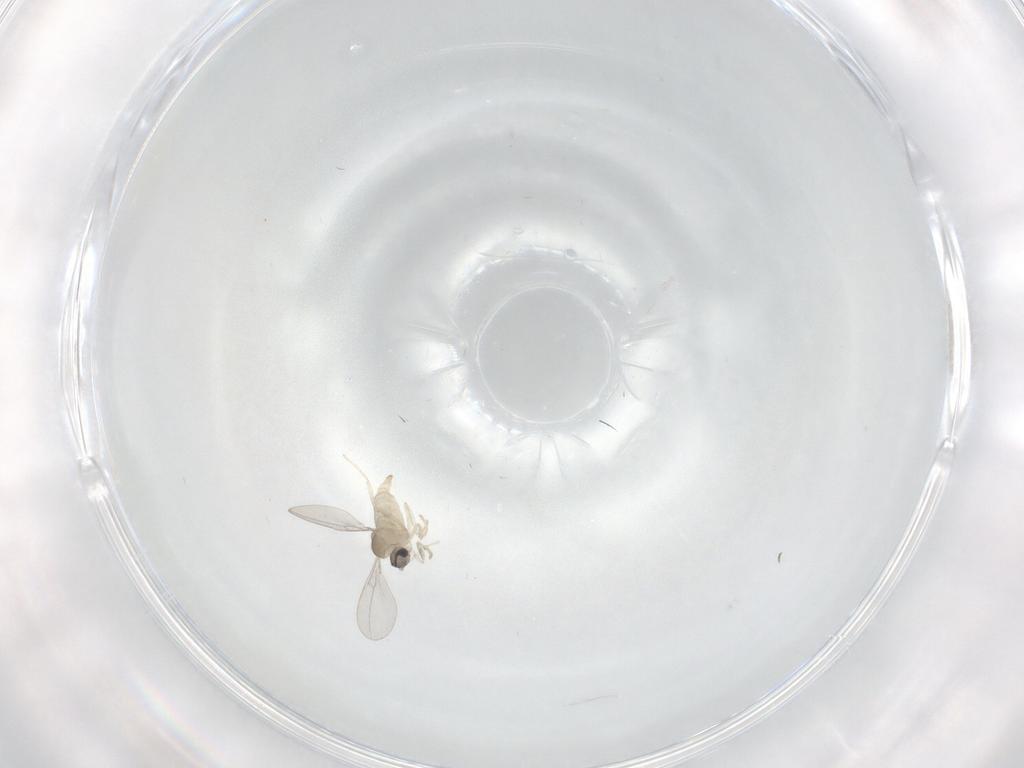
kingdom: Animalia
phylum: Arthropoda
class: Insecta
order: Diptera
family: Cecidomyiidae
